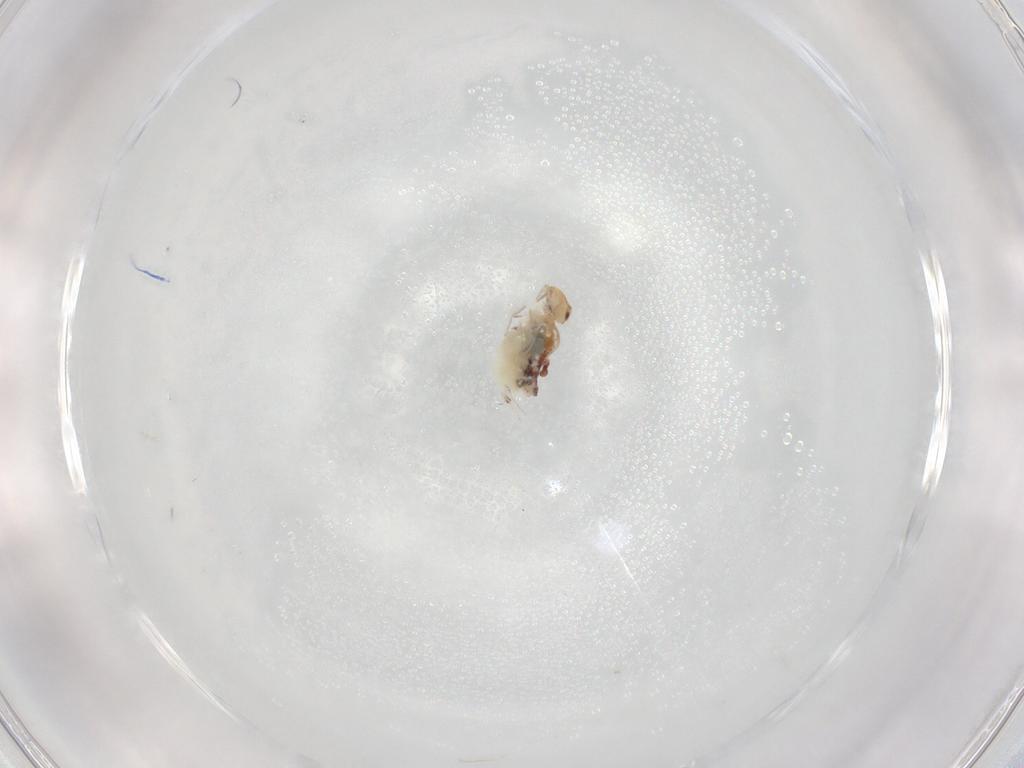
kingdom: Animalia
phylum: Arthropoda
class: Collembola
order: Symphypleona
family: Bourletiellidae
